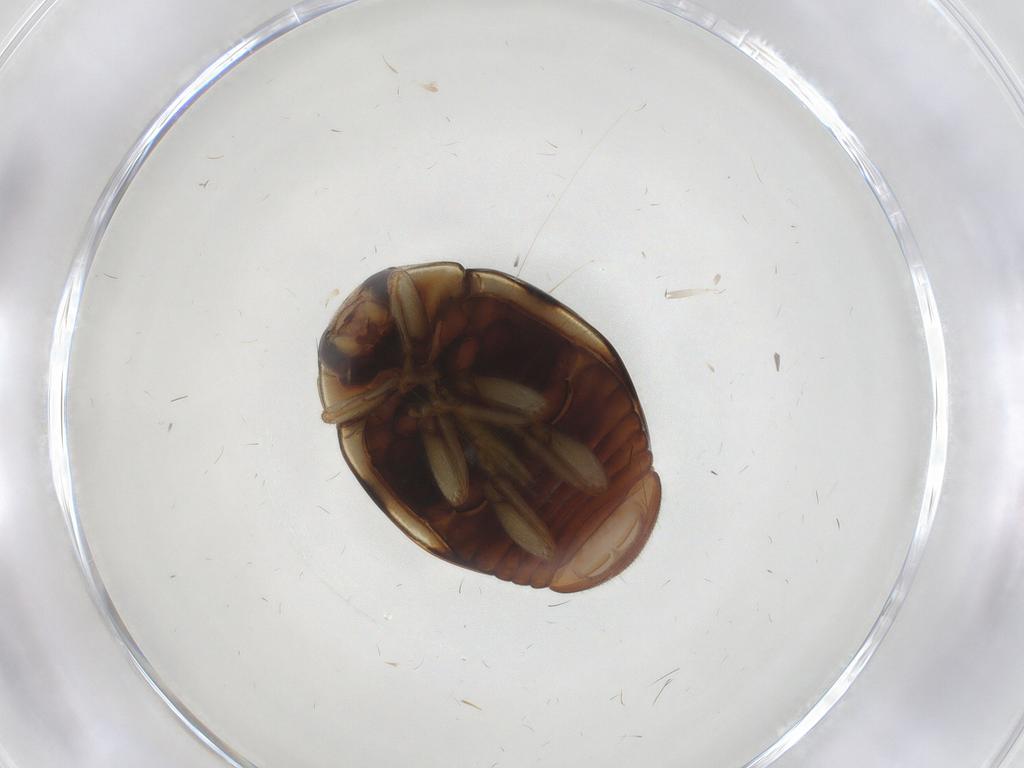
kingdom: Animalia
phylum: Arthropoda
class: Insecta
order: Coleoptera
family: Coccinellidae
